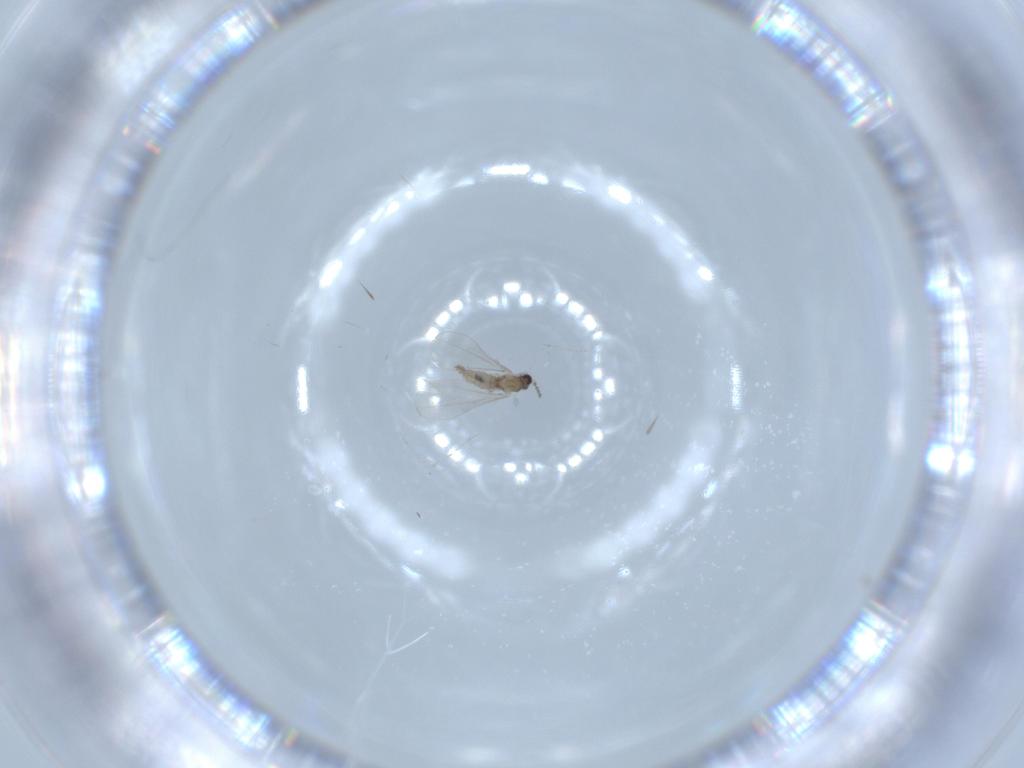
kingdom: Animalia
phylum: Arthropoda
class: Insecta
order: Diptera
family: Cecidomyiidae
